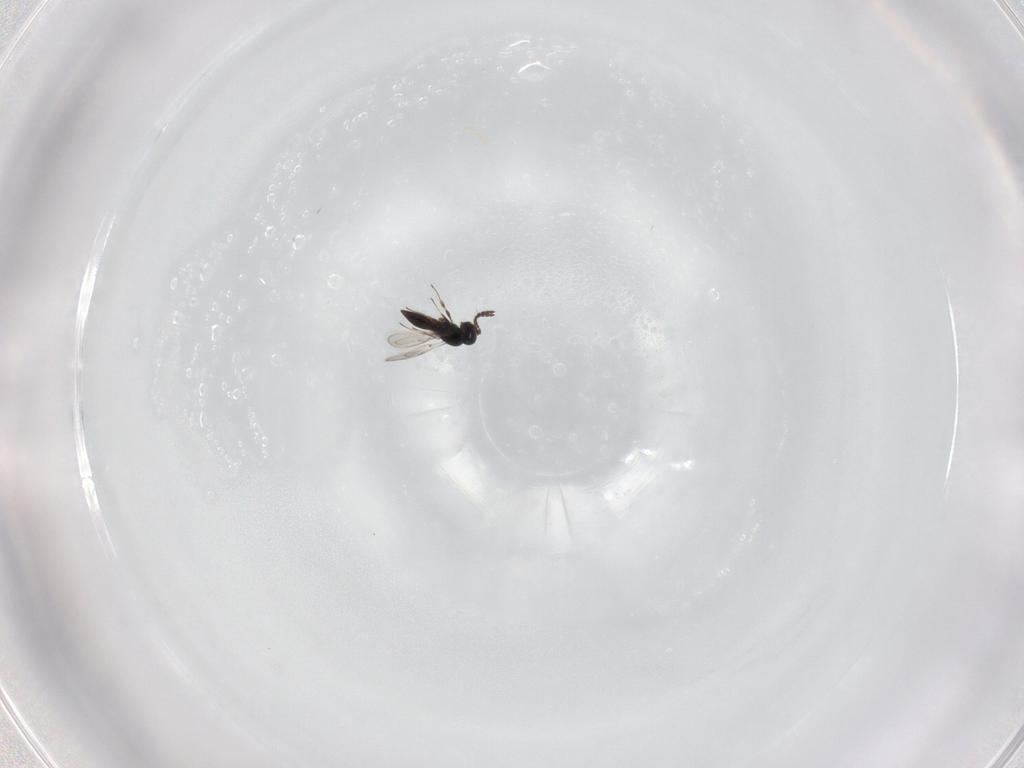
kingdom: Animalia
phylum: Arthropoda
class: Insecta
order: Hymenoptera
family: Scelionidae
